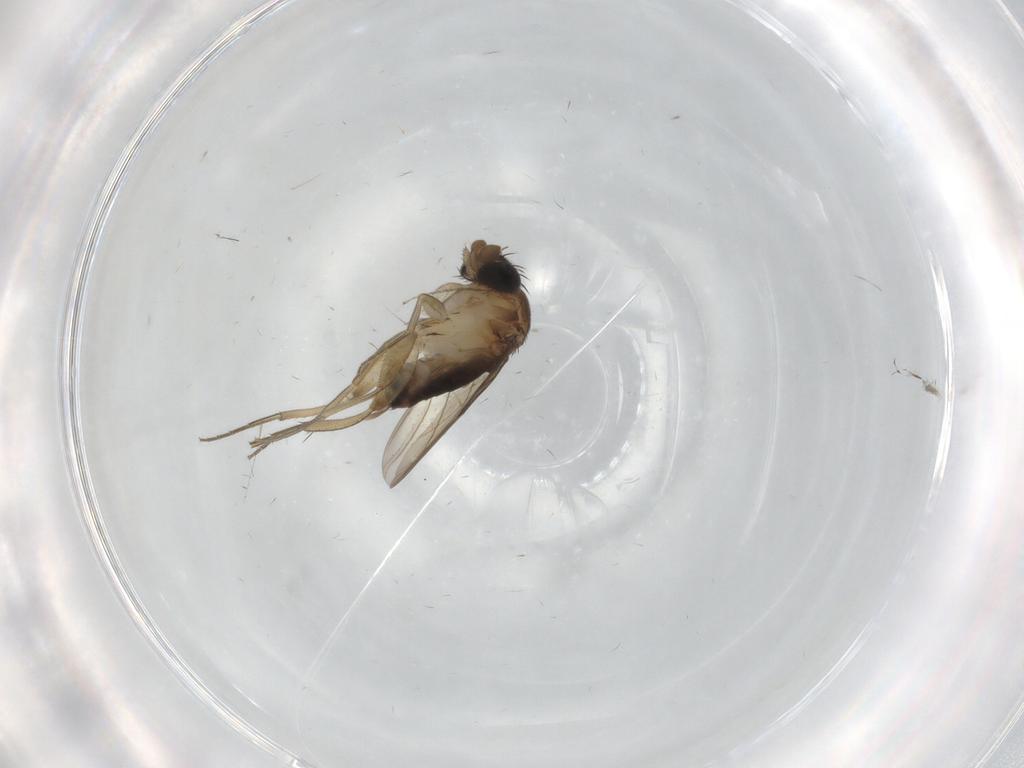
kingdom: Animalia
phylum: Arthropoda
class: Insecta
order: Diptera
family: Phoridae
